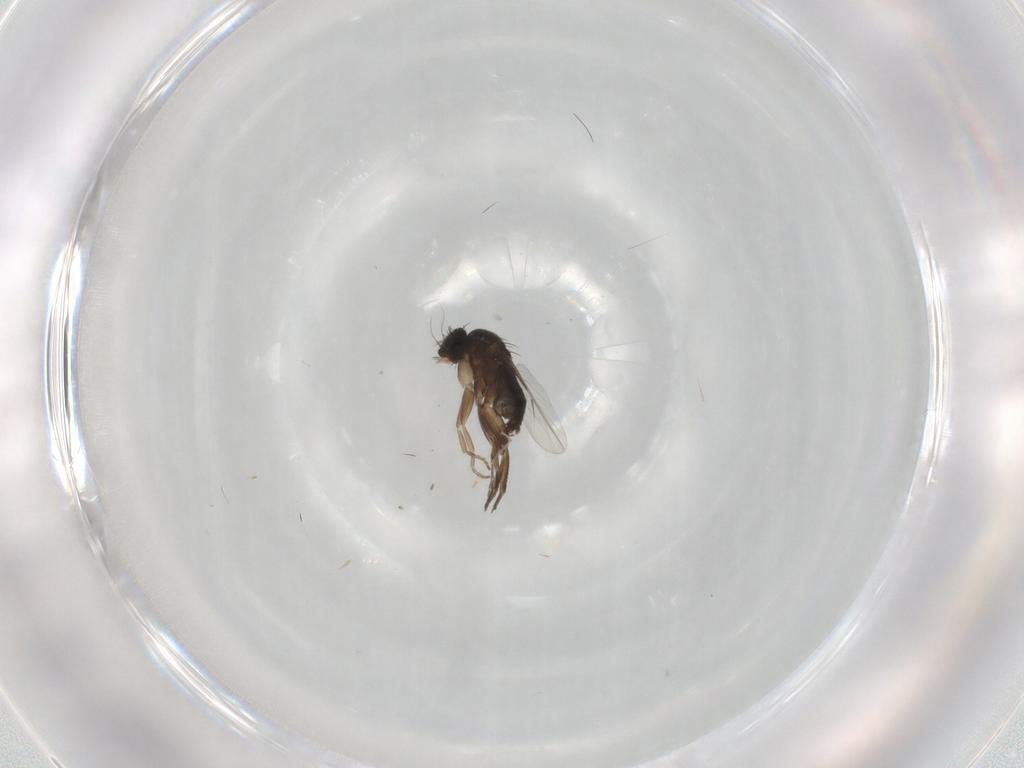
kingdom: Animalia
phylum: Arthropoda
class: Insecta
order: Diptera
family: Phoridae
